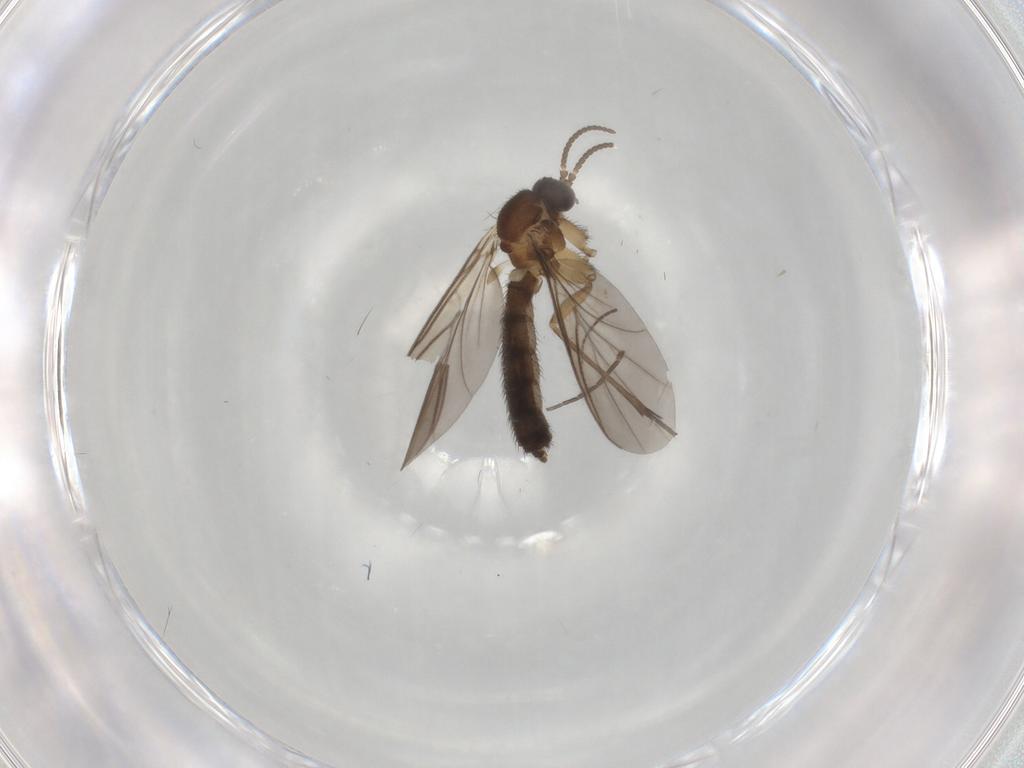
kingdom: Animalia
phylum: Arthropoda
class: Insecta
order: Diptera
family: Keroplatidae
